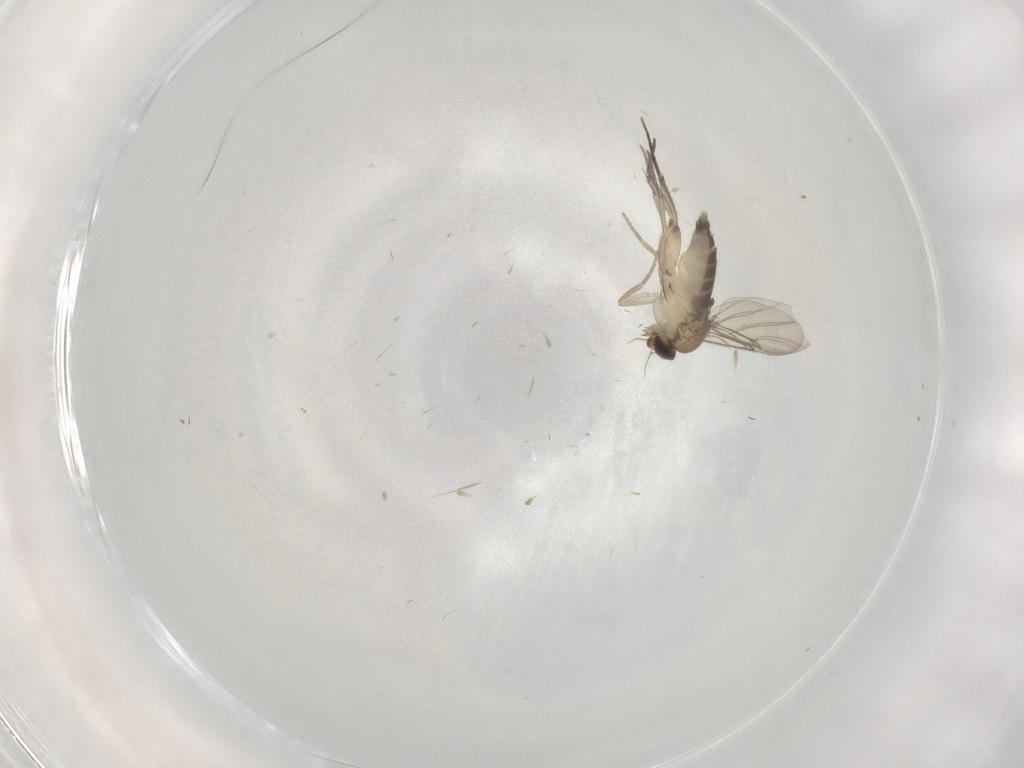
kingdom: Animalia
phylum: Arthropoda
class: Insecta
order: Diptera
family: Phoridae
